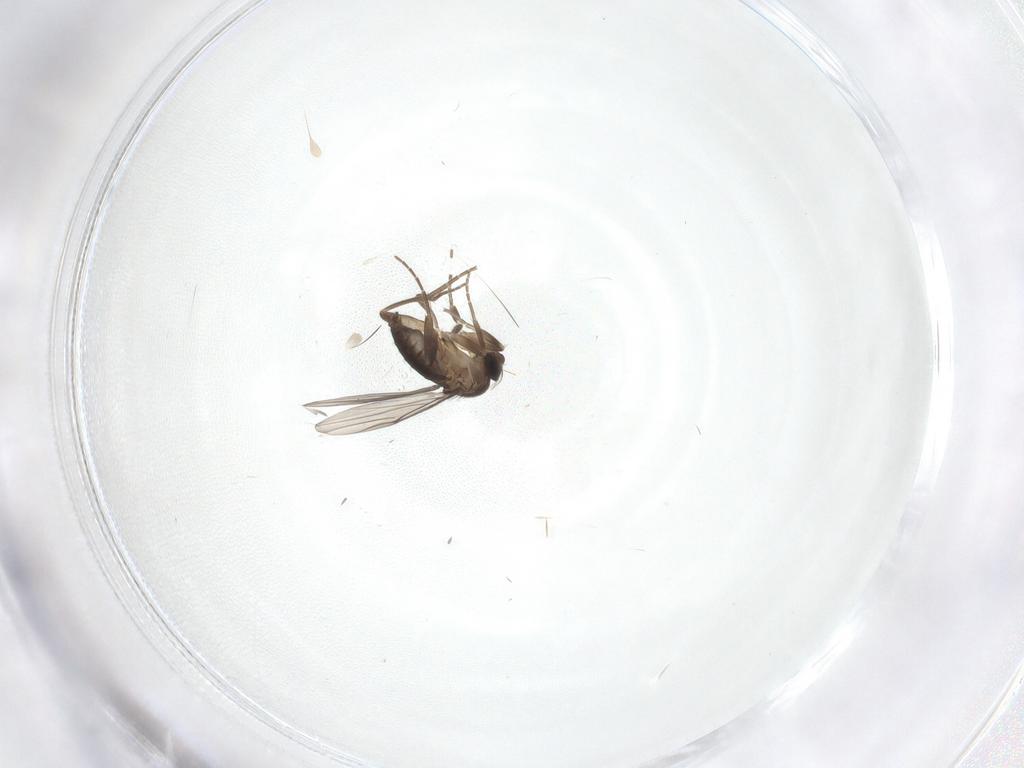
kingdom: Animalia
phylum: Arthropoda
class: Insecta
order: Diptera
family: Phoridae
